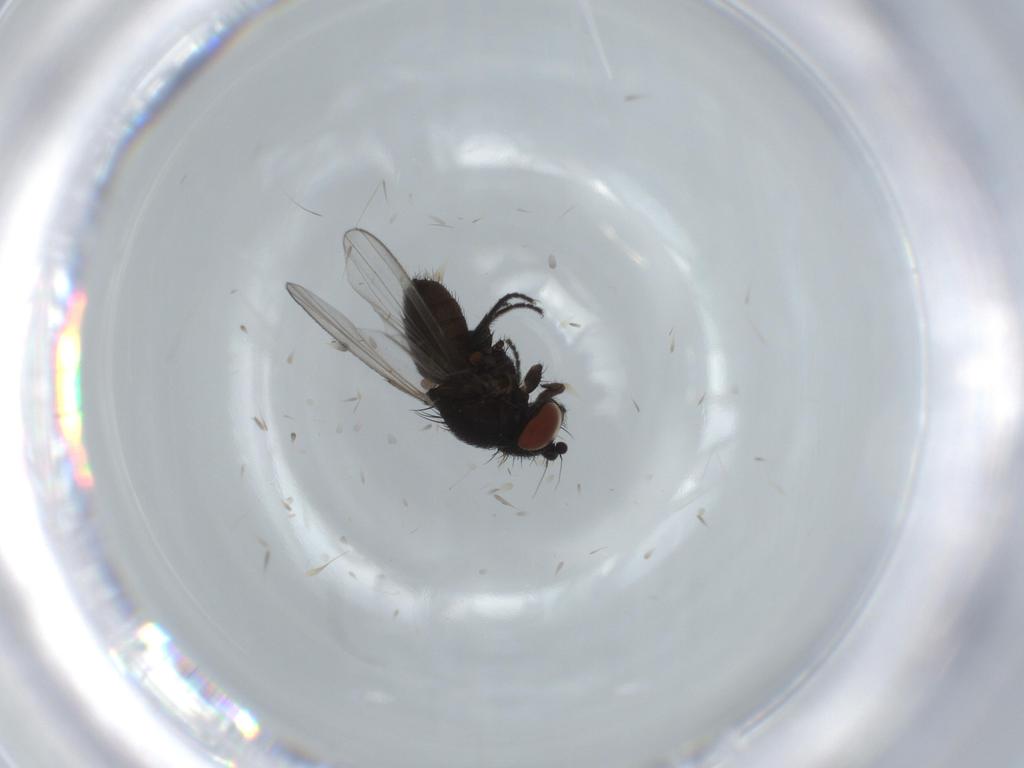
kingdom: Animalia
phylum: Arthropoda
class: Insecta
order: Diptera
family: Milichiidae
